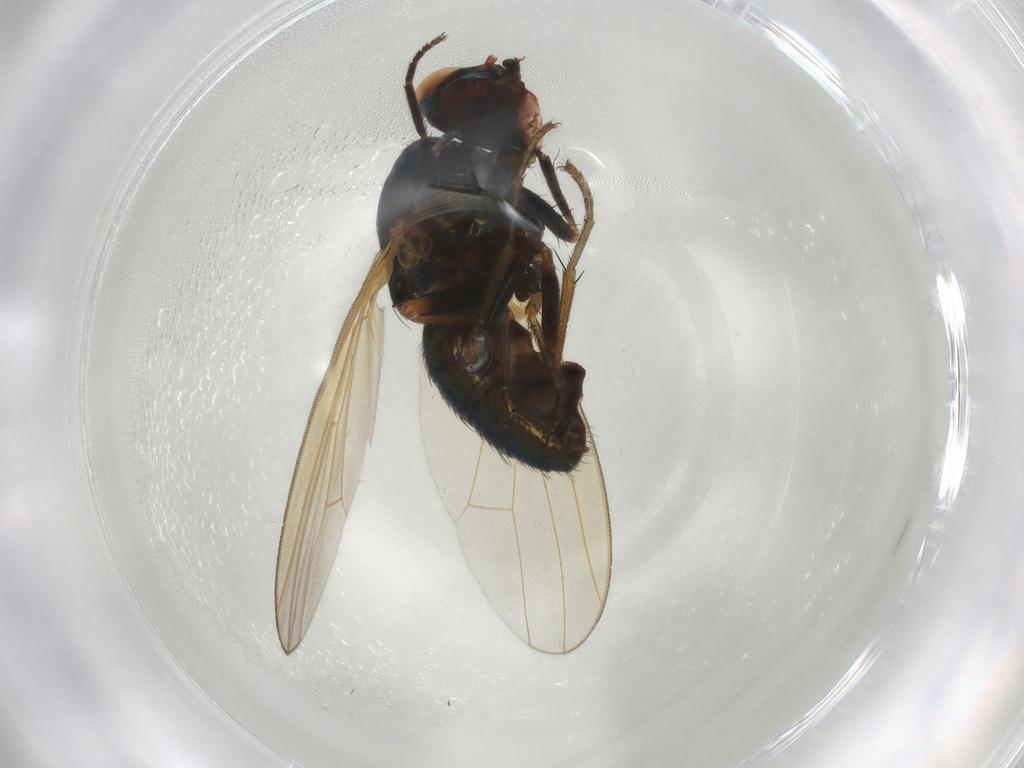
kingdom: Animalia
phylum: Arthropoda
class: Insecta
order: Diptera
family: Lauxaniidae
